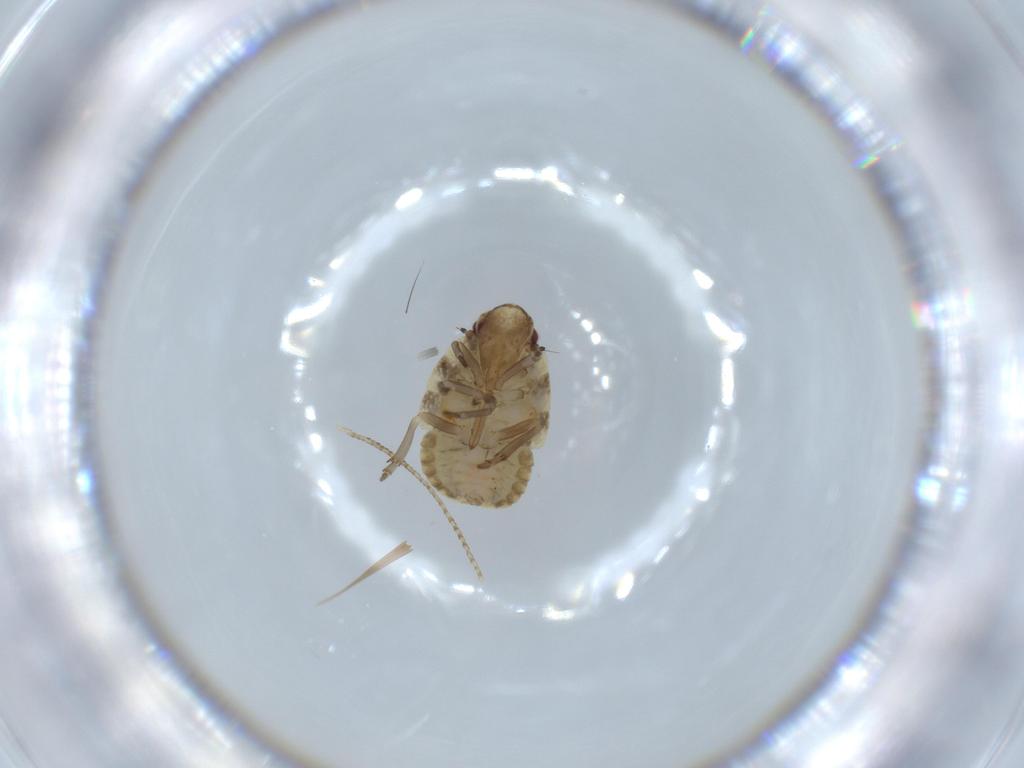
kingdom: Animalia
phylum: Arthropoda
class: Insecta
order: Hemiptera
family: Flatidae
